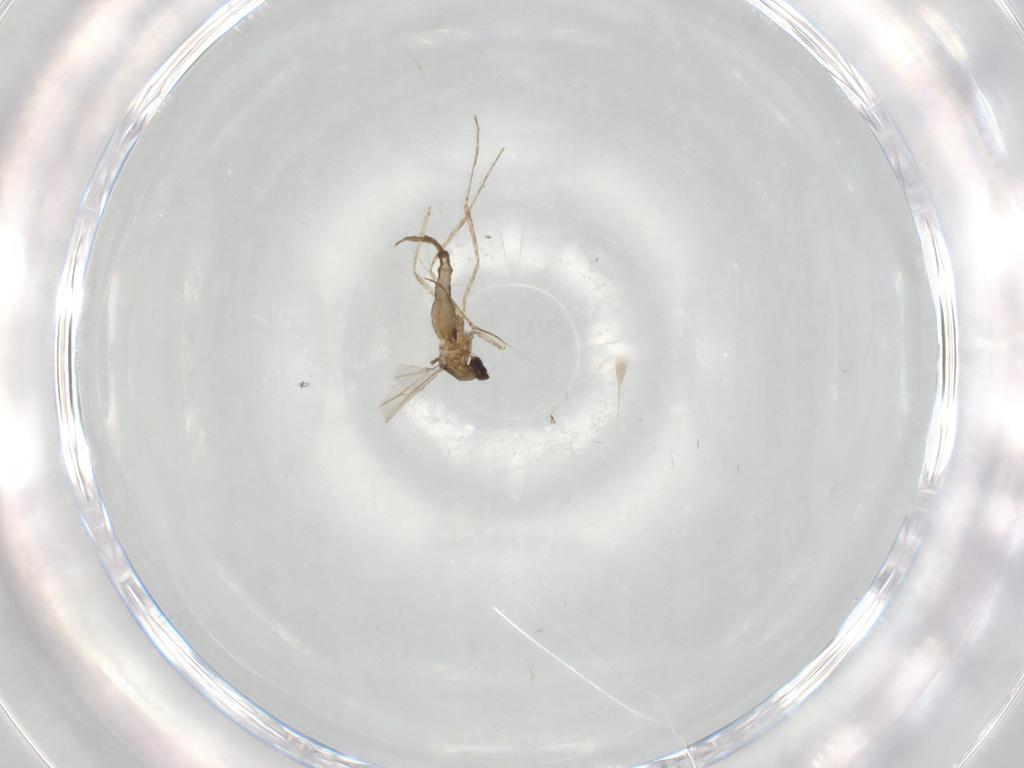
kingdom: Animalia
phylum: Arthropoda
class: Insecta
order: Diptera
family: Cecidomyiidae
